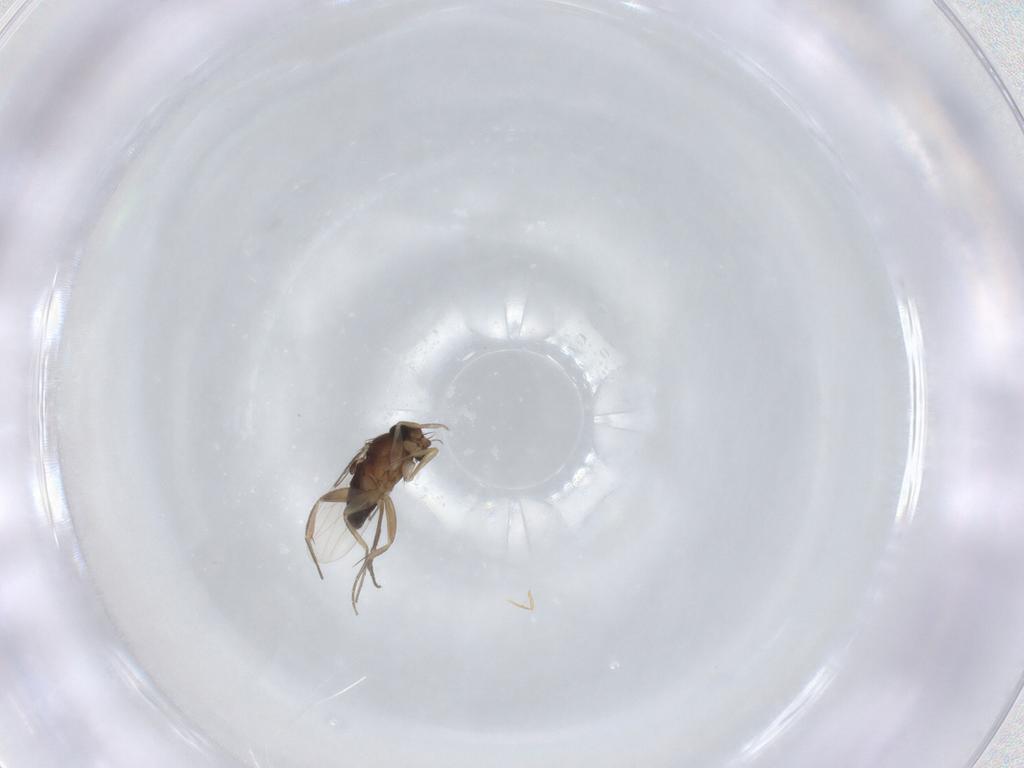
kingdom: Animalia
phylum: Arthropoda
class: Insecta
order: Diptera
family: Phoridae
